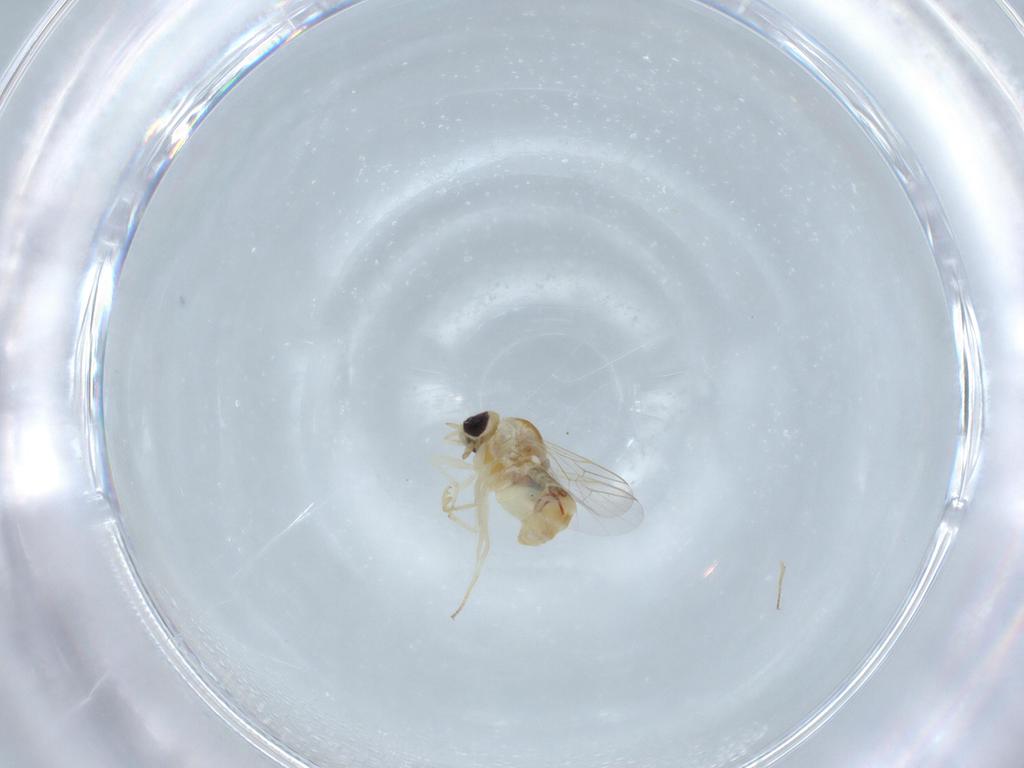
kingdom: Animalia
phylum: Arthropoda
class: Insecta
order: Diptera
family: Mythicomyiidae
